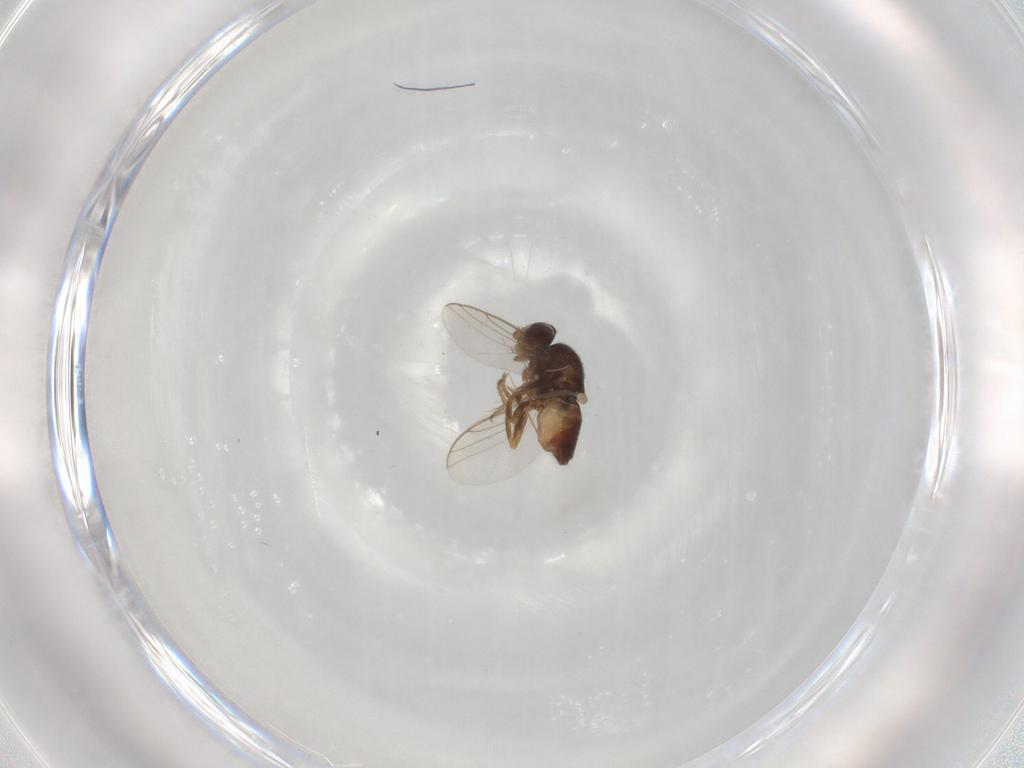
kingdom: Animalia
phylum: Arthropoda
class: Insecta
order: Diptera
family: Chloropidae
